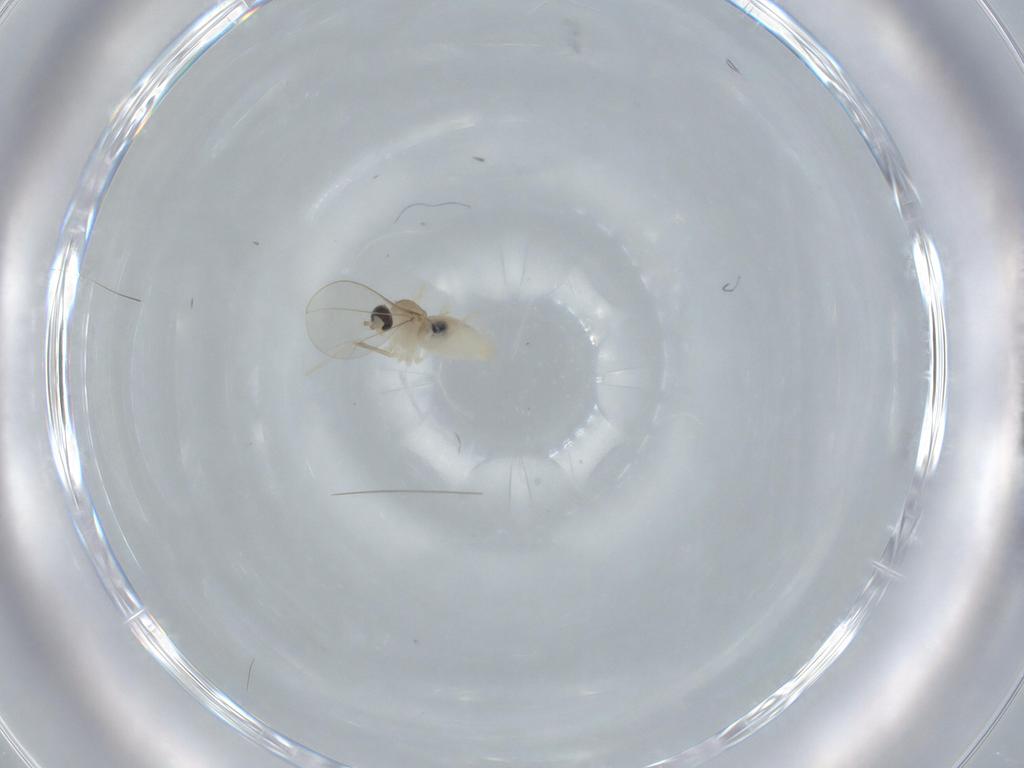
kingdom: Animalia
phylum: Arthropoda
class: Insecta
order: Diptera
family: Cecidomyiidae
